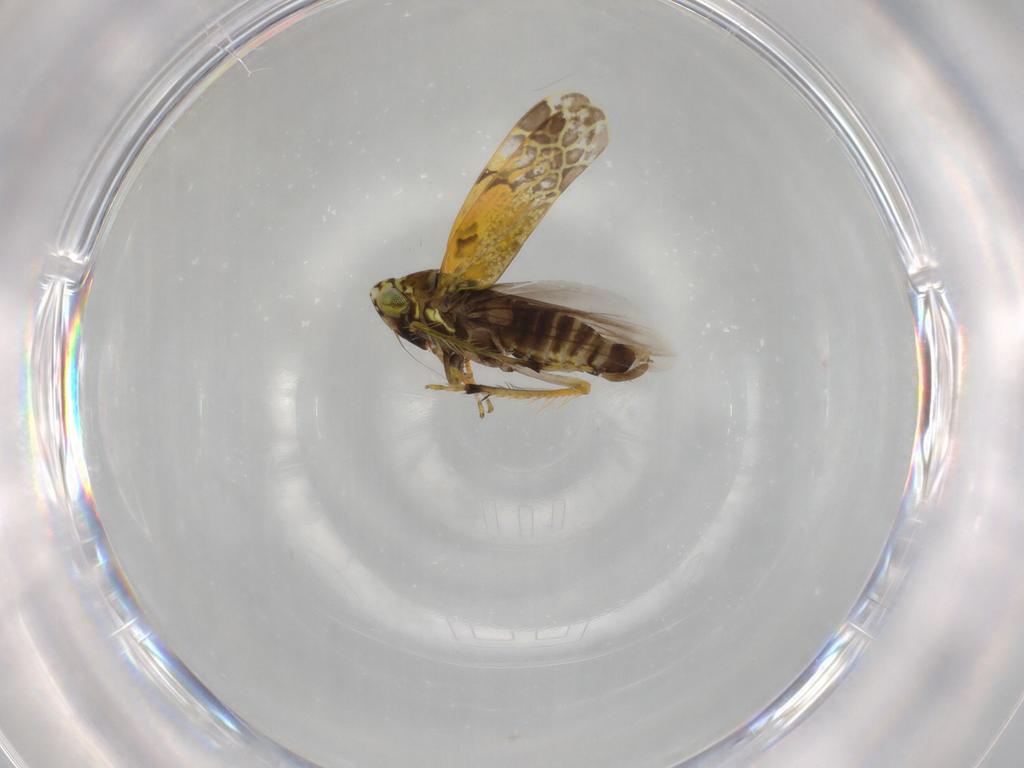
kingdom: Animalia
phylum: Arthropoda
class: Insecta
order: Hemiptera
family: Cicadellidae
